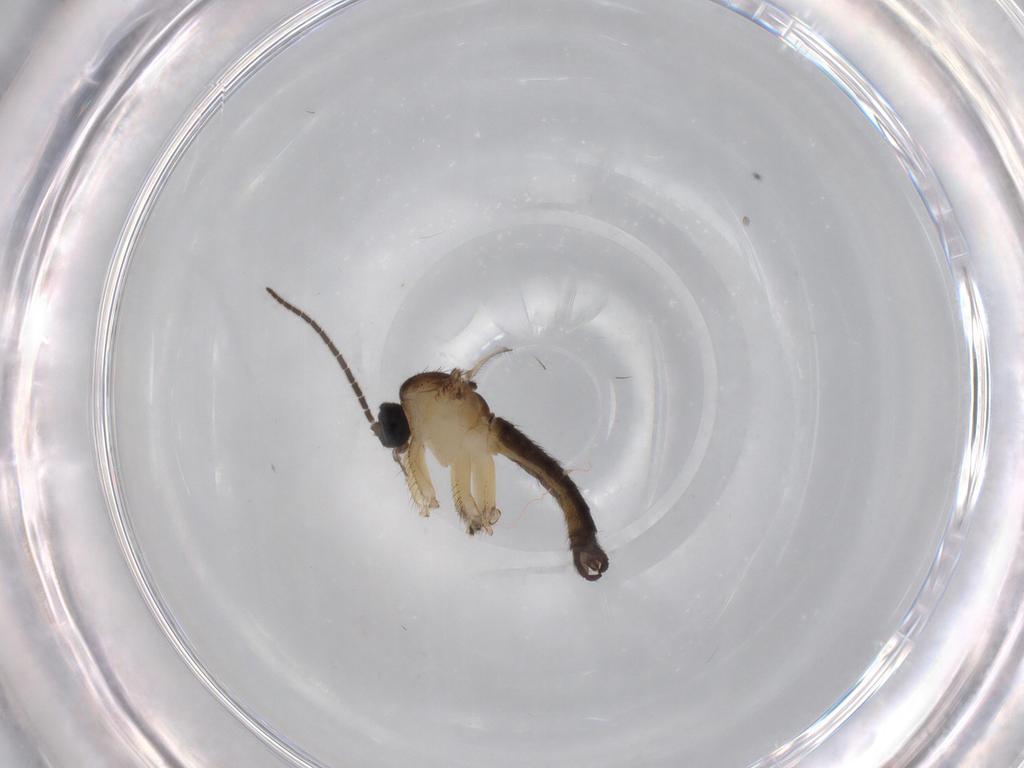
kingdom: Animalia
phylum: Arthropoda
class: Insecta
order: Diptera
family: Sciaridae
